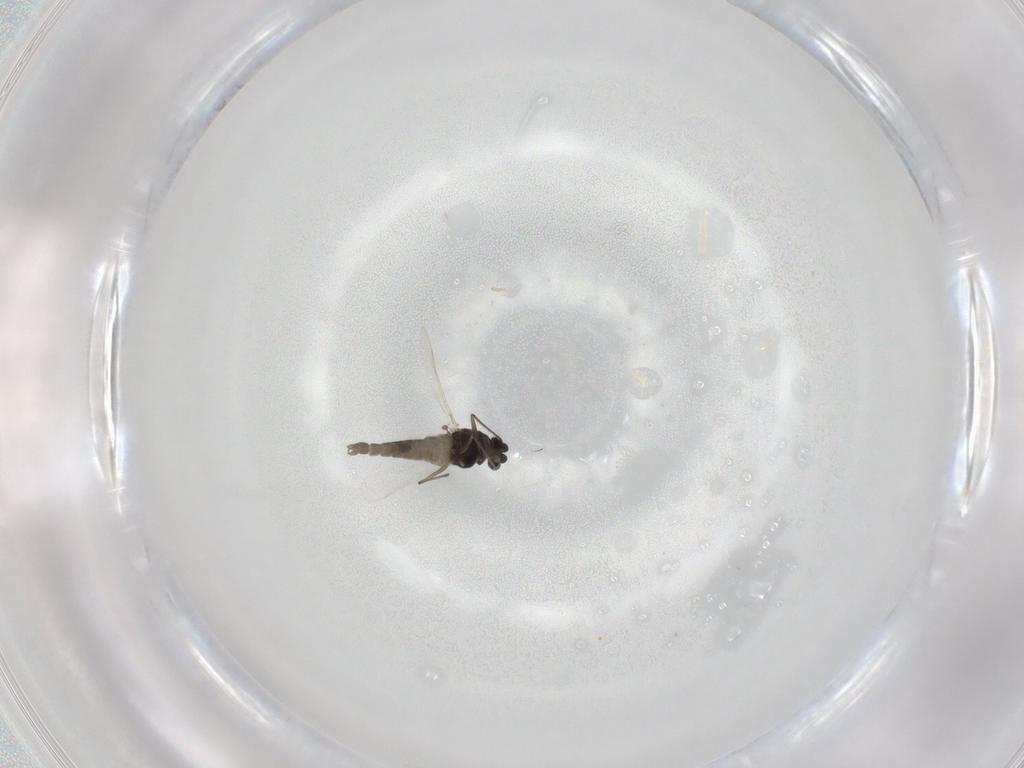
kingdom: Animalia
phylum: Arthropoda
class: Insecta
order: Diptera
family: Chironomidae
